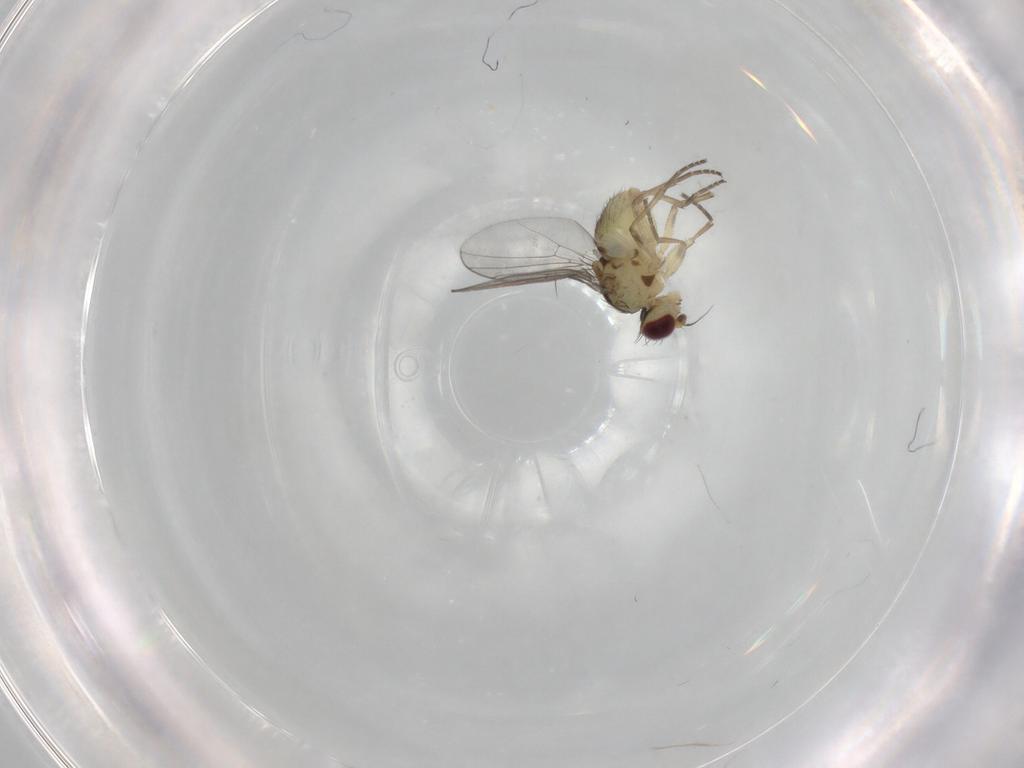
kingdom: Animalia
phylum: Arthropoda
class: Insecta
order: Diptera
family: Agromyzidae
